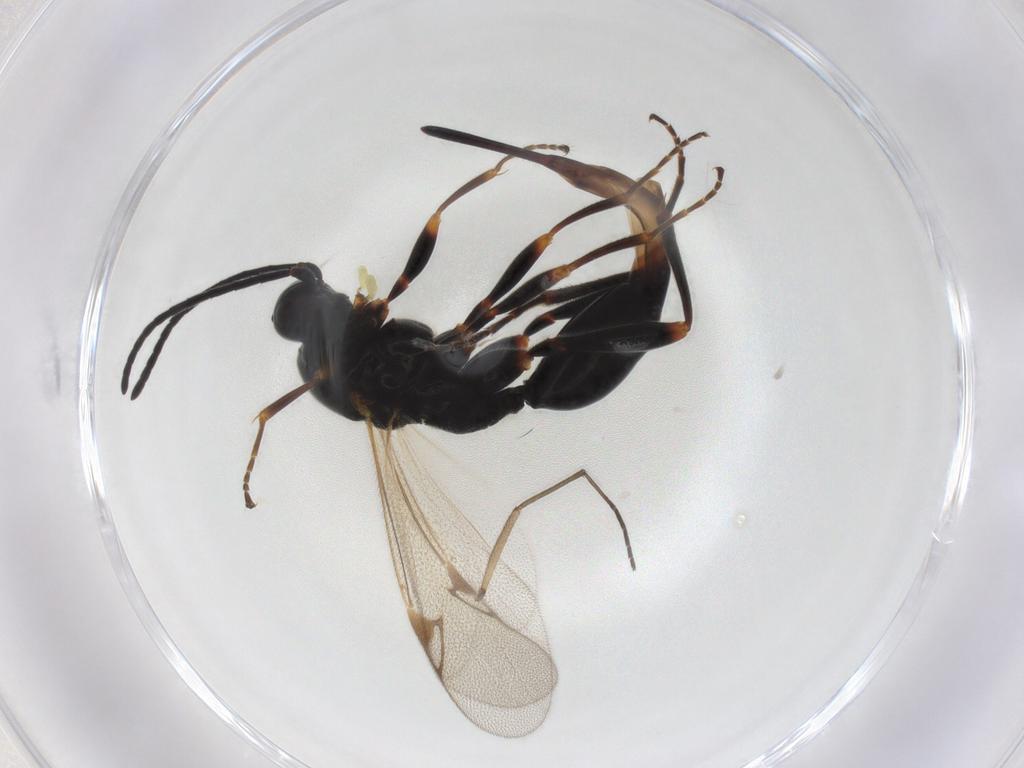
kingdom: Animalia
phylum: Arthropoda
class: Insecta
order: Hymenoptera
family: Proctotrupidae
